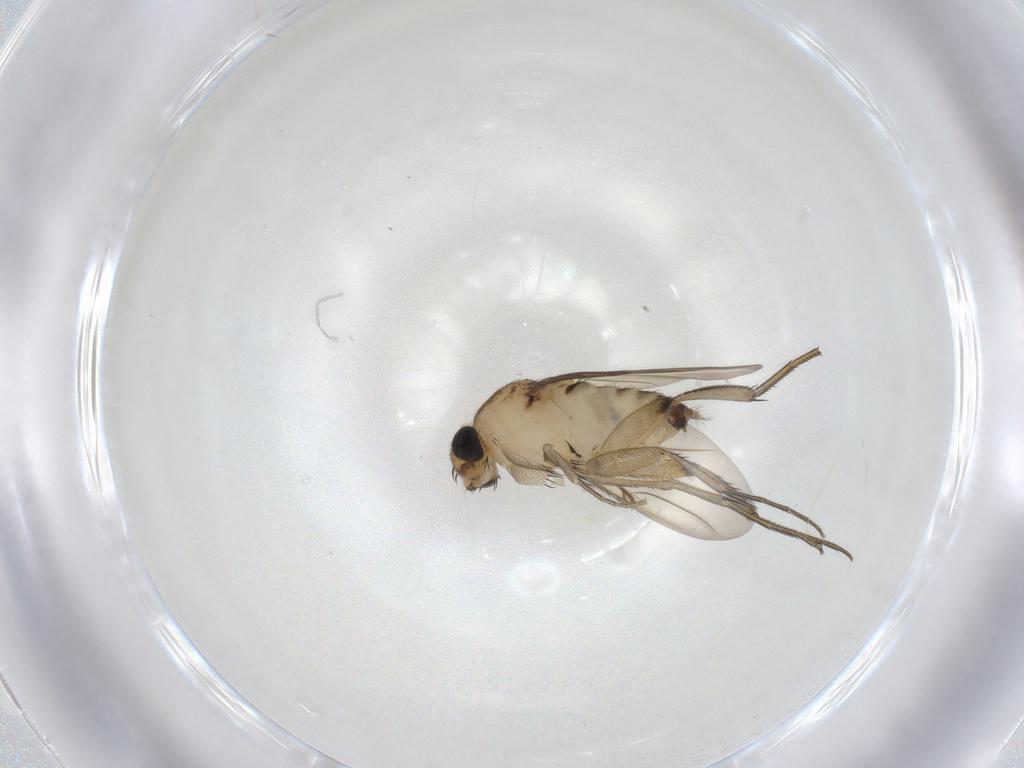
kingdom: Animalia
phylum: Arthropoda
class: Insecta
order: Diptera
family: Phoridae
